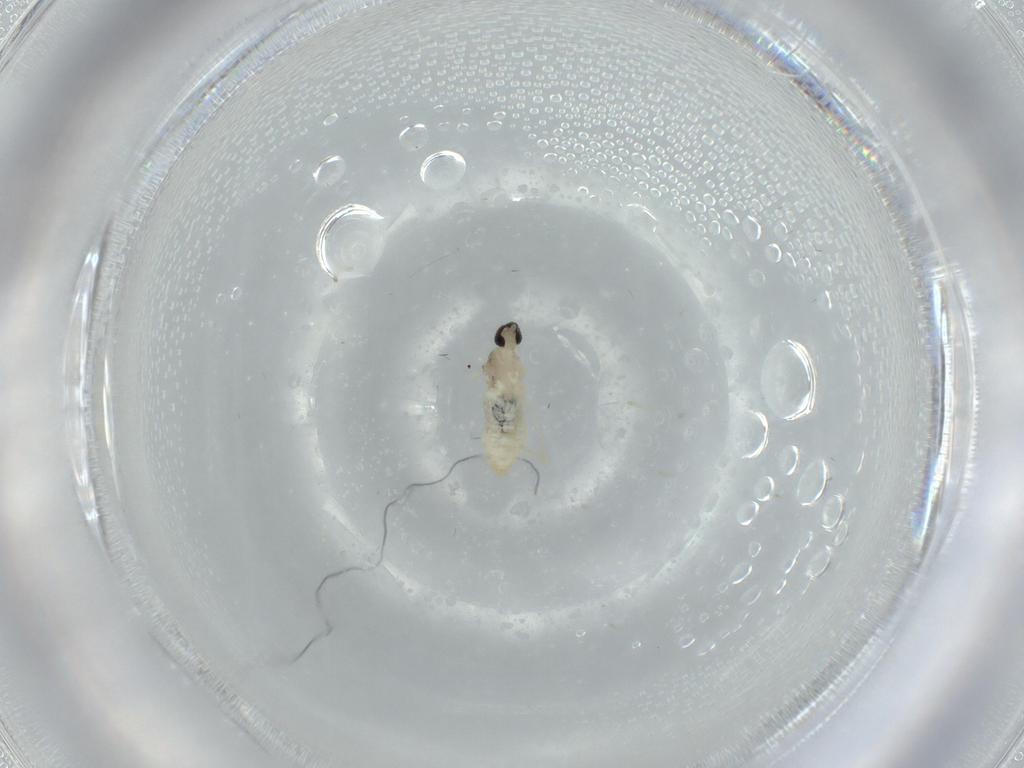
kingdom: Animalia
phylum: Arthropoda
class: Insecta
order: Diptera
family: Cecidomyiidae
